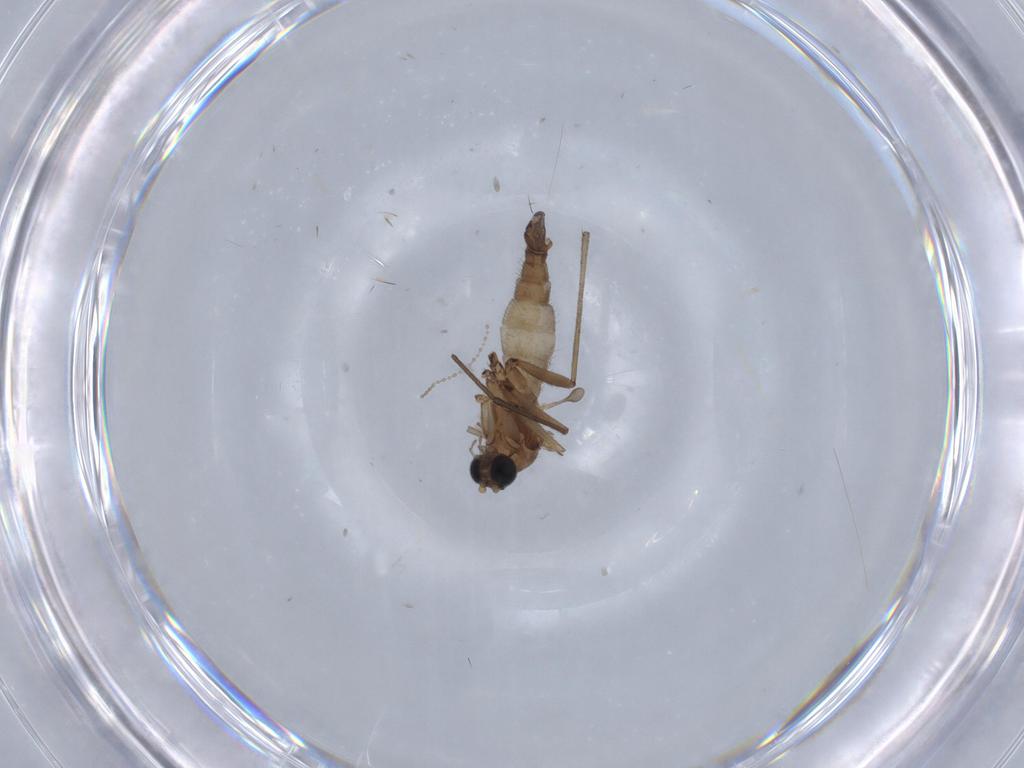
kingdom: Animalia
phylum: Arthropoda
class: Insecta
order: Diptera
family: Sciaridae
